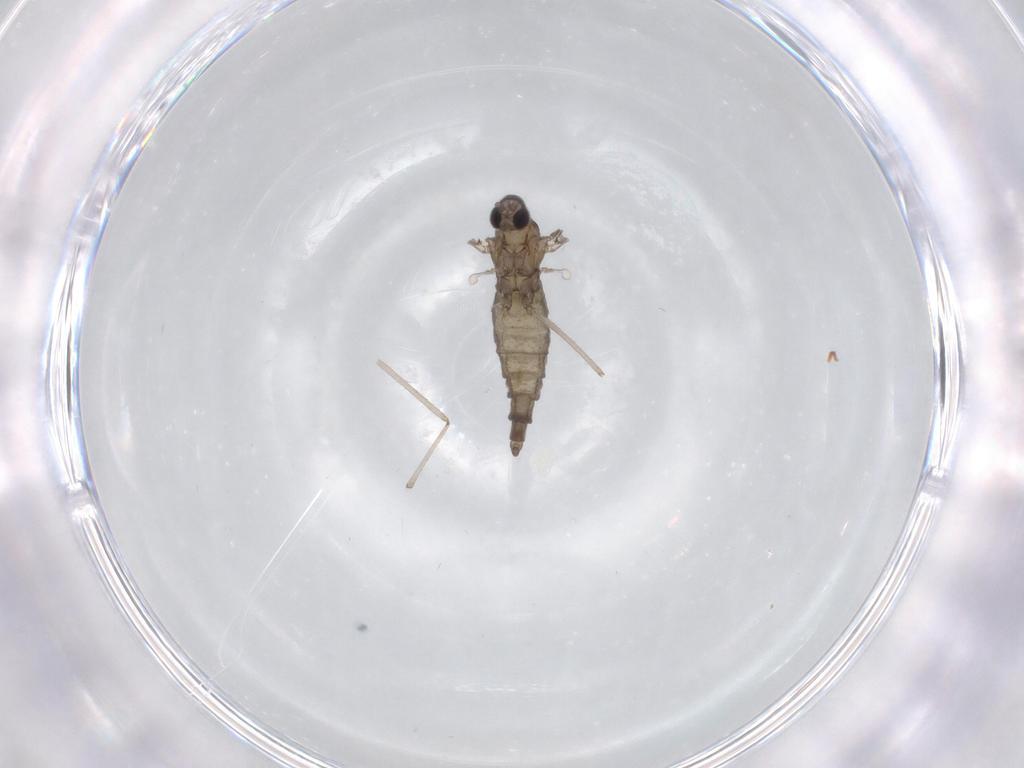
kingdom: Animalia
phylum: Arthropoda
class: Insecta
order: Diptera
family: Cecidomyiidae
